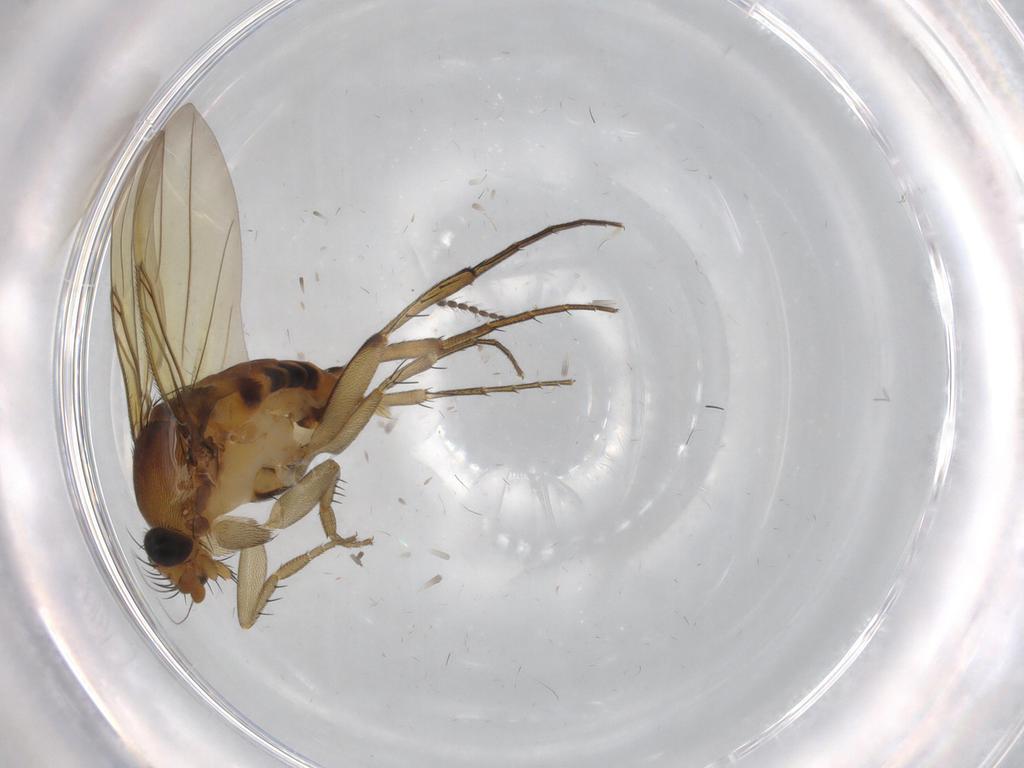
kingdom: Animalia
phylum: Arthropoda
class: Insecta
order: Diptera
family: Limoniidae
